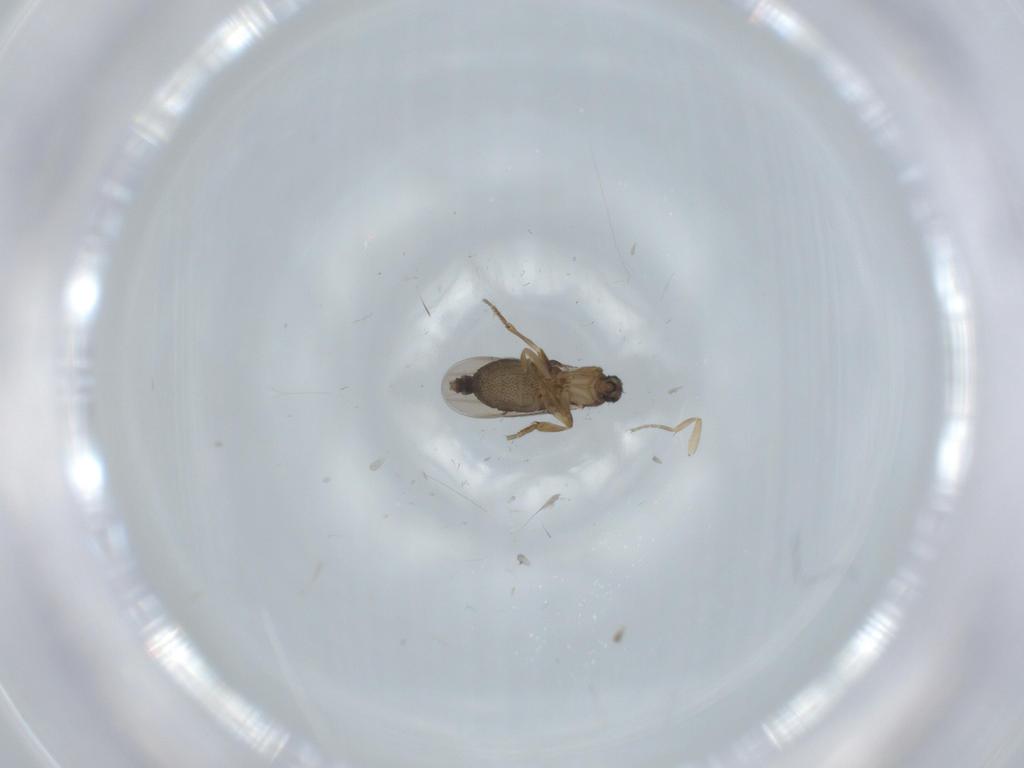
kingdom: Animalia
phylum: Arthropoda
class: Insecta
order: Diptera
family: Phoridae
